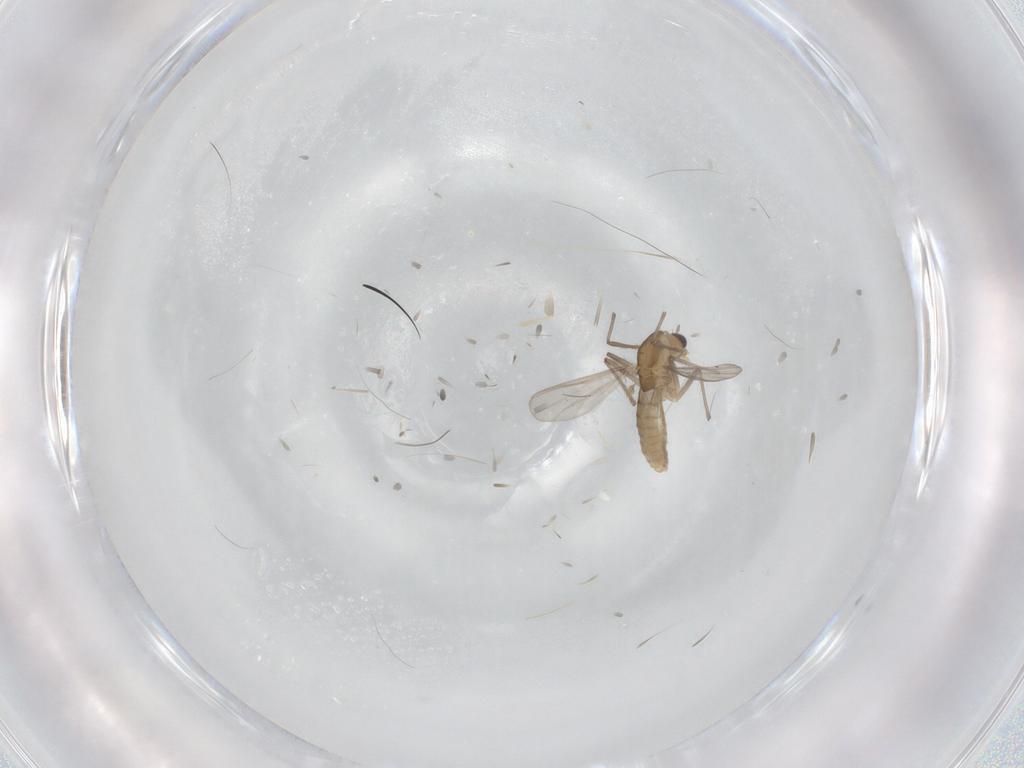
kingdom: Animalia
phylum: Arthropoda
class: Insecta
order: Diptera
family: Chironomidae
